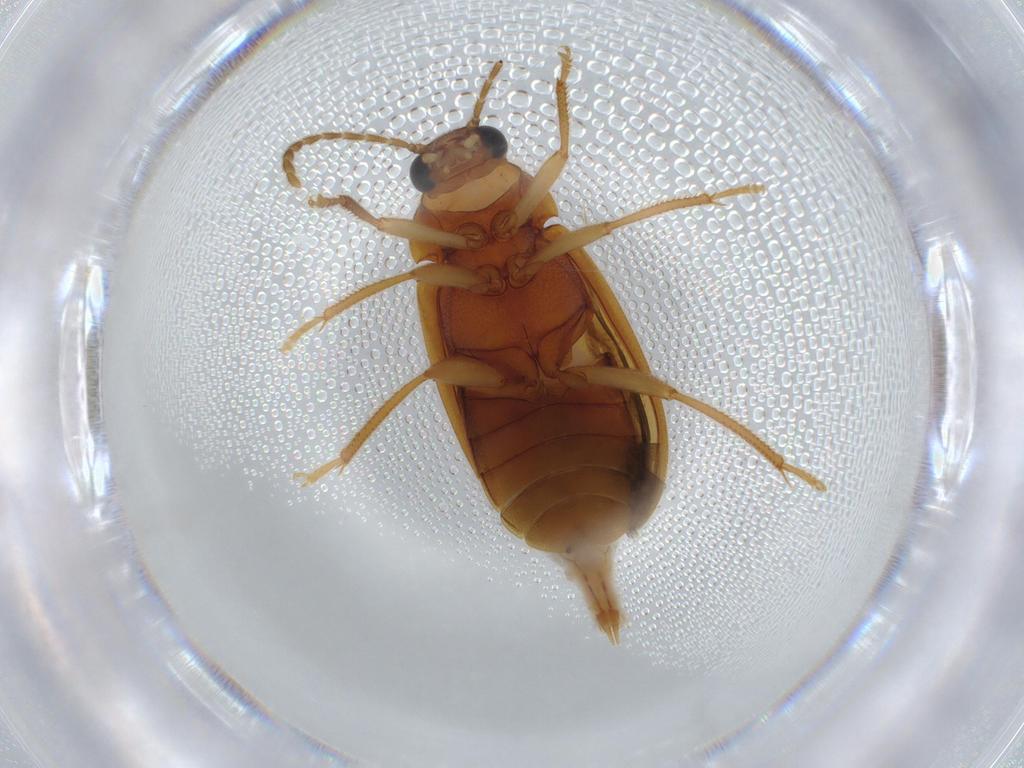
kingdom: Animalia
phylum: Arthropoda
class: Insecta
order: Coleoptera
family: Ptilodactylidae
